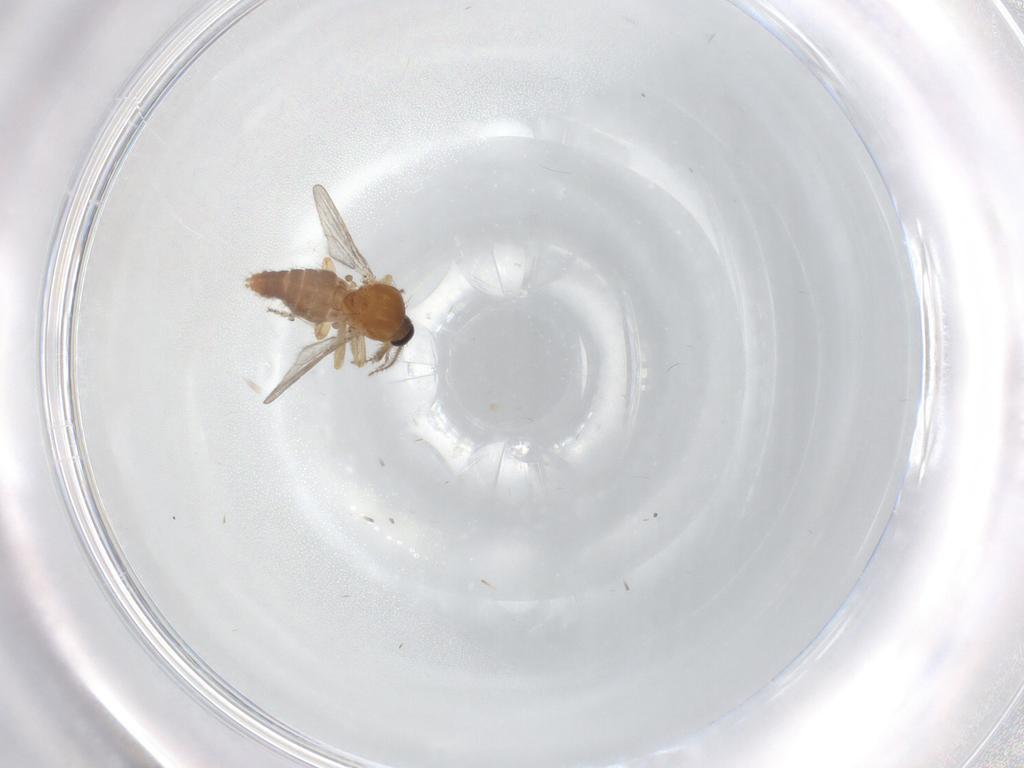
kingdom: Animalia
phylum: Arthropoda
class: Insecta
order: Diptera
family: Ceratopogonidae
